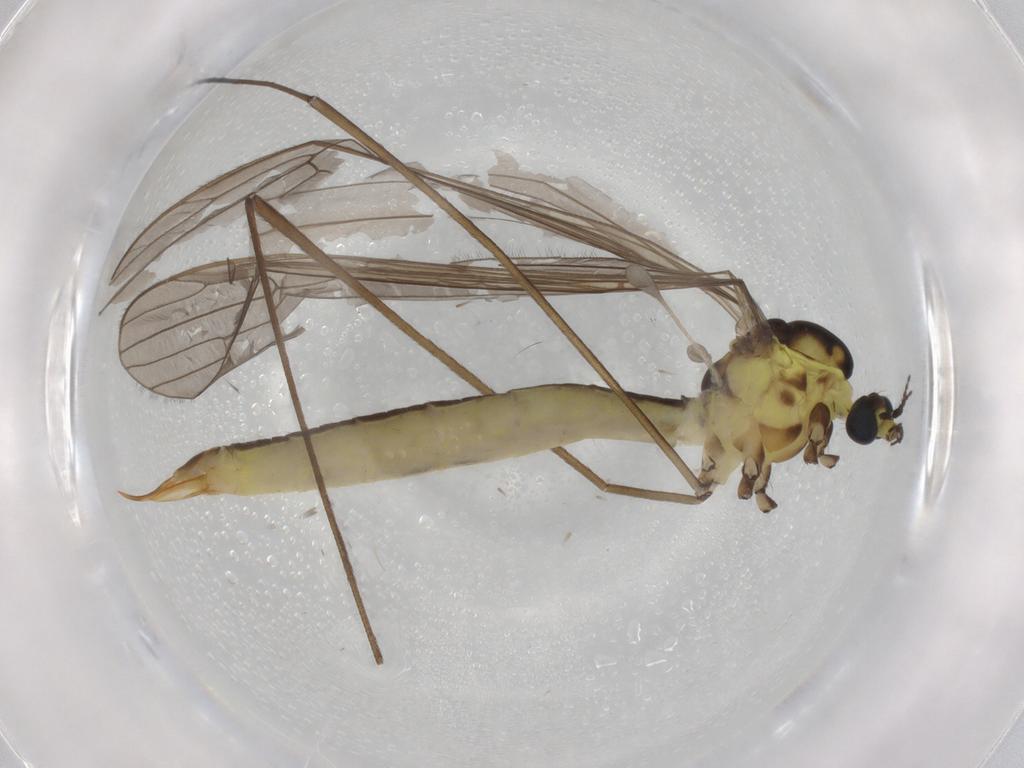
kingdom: Animalia
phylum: Arthropoda
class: Insecta
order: Diptera
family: Limoniidae
